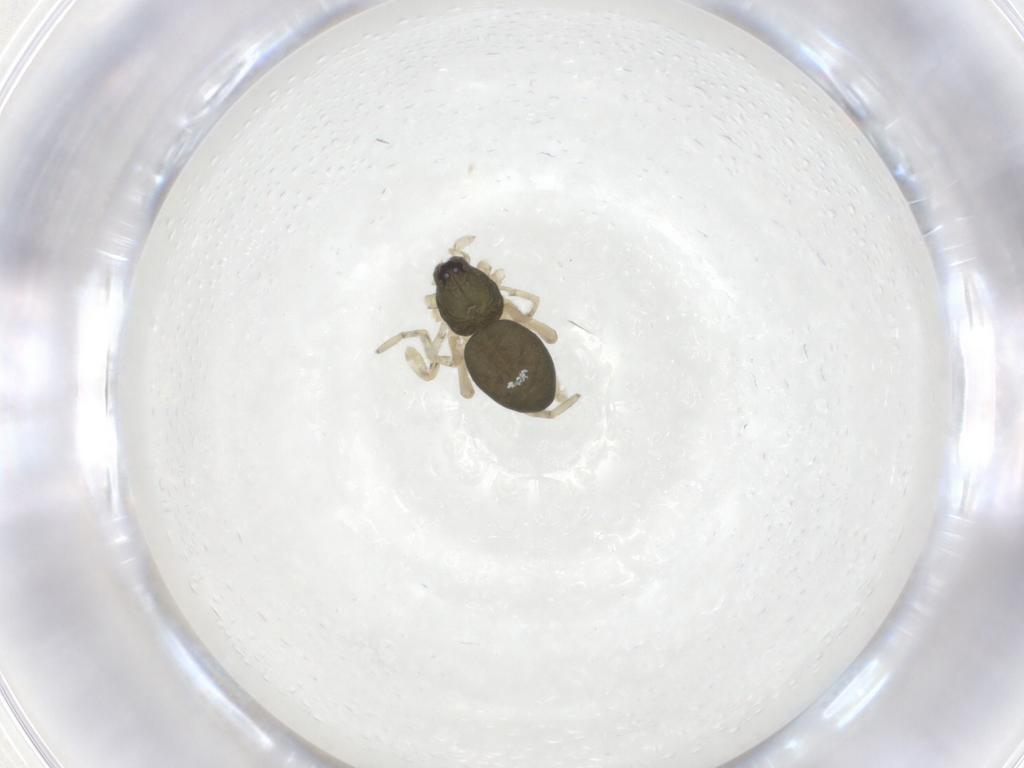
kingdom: Animalia
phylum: Arthropoda
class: Arachnida
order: Araneae
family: Trachelidae
